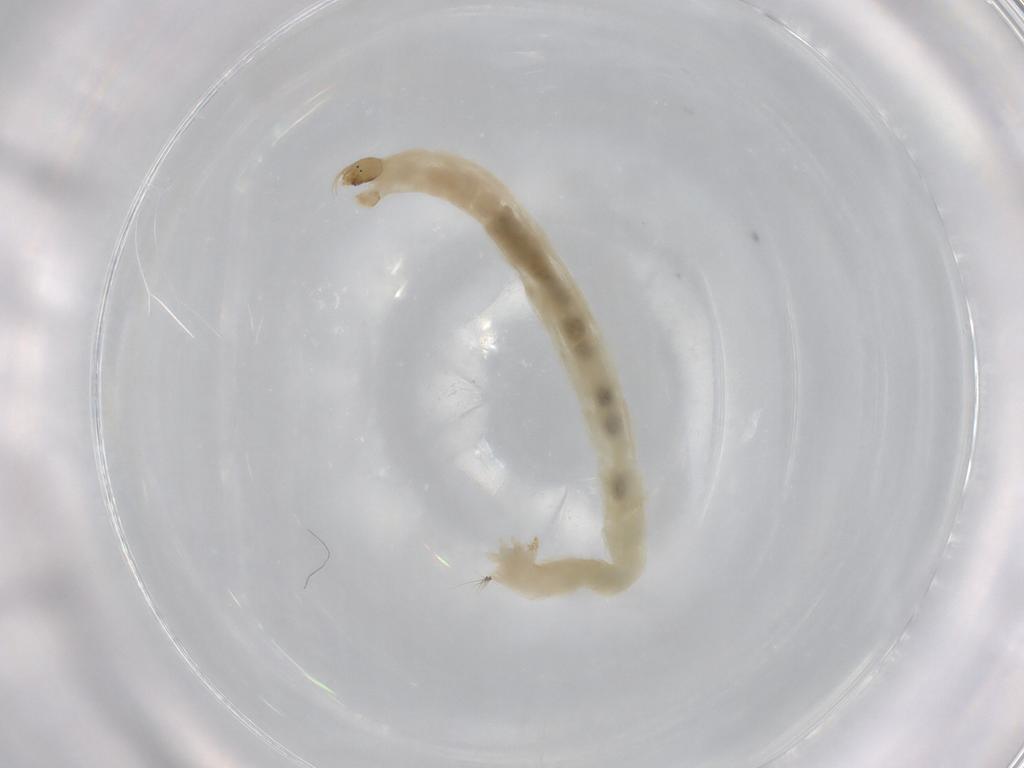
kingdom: Animalia
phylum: Arthropoda
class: Insecta
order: Diptera
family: Chironomidae
